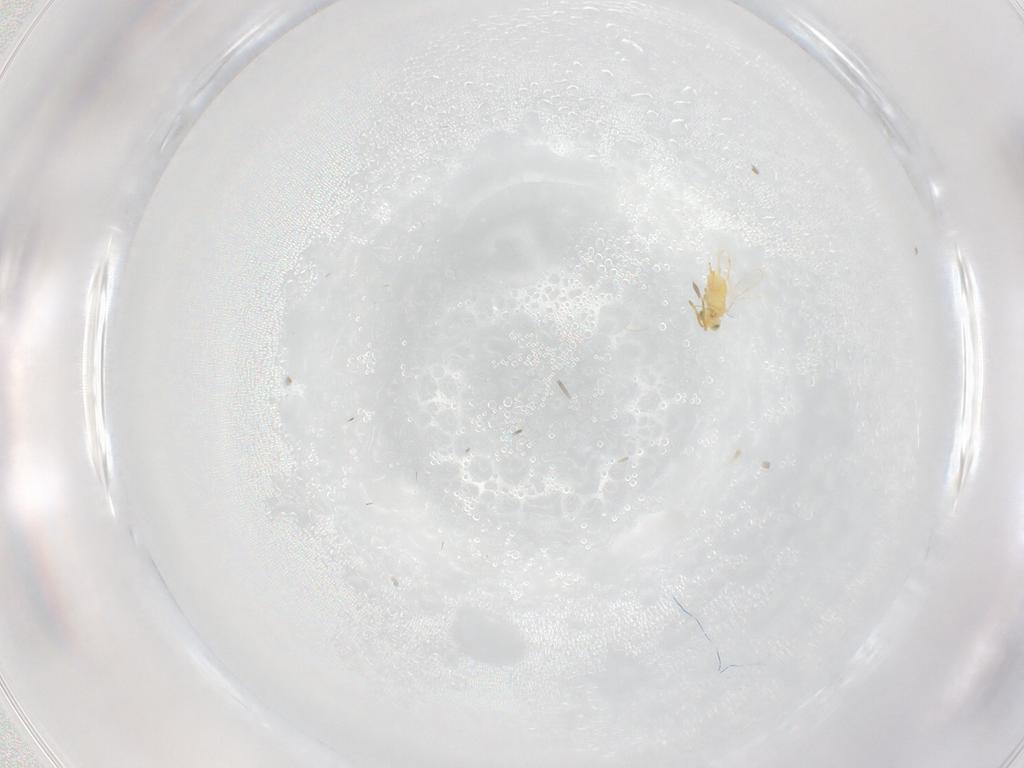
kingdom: Animalia
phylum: Arthropoda
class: Insecta
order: Hymenoptera
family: Aphelinidae
